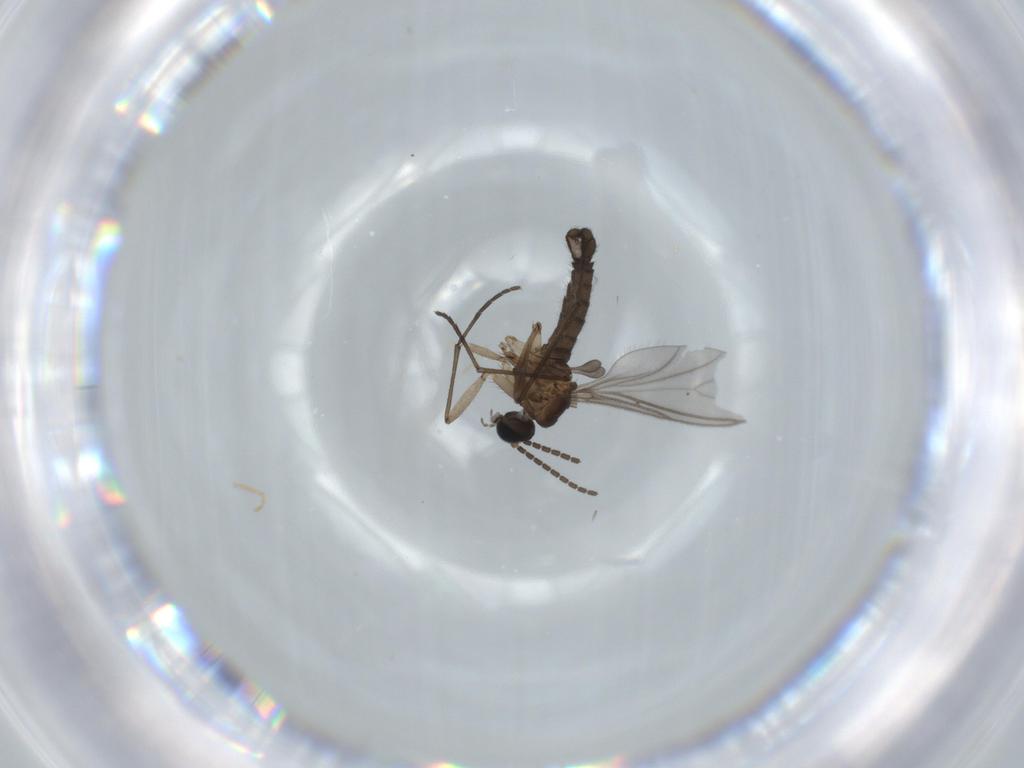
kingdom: Animalia
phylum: Arthropoda
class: Insecta
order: Diptera
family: Sciaridae
